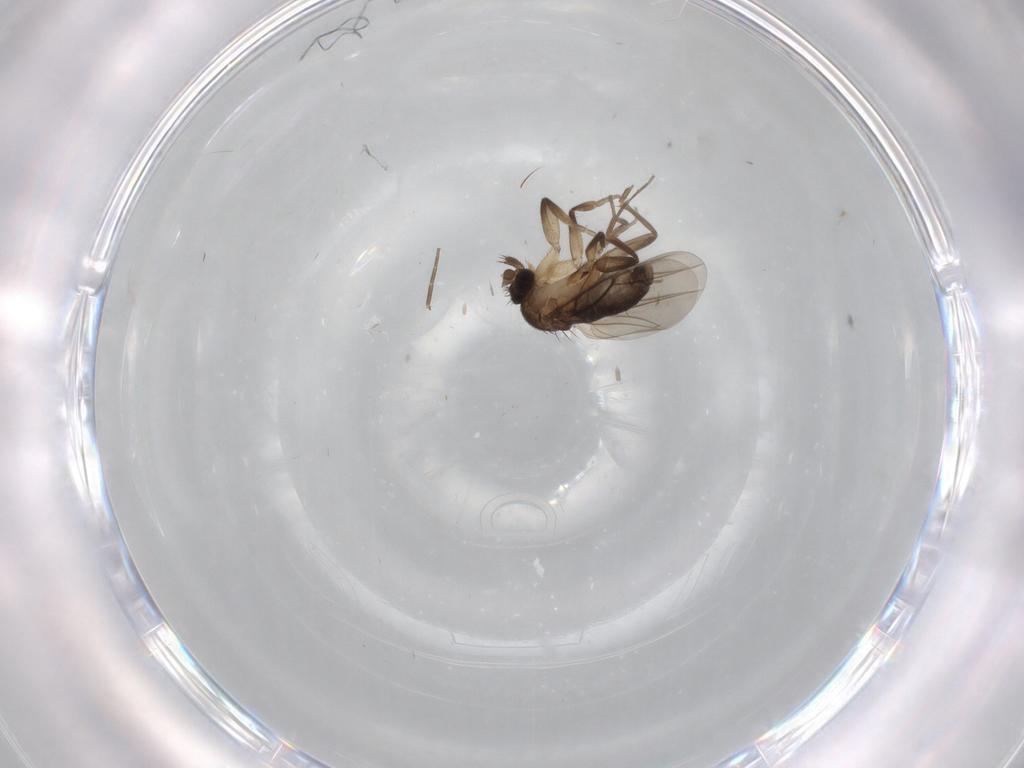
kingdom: Animalia
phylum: Arthropoda
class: Insecta
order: Diptera
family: Phoridae
